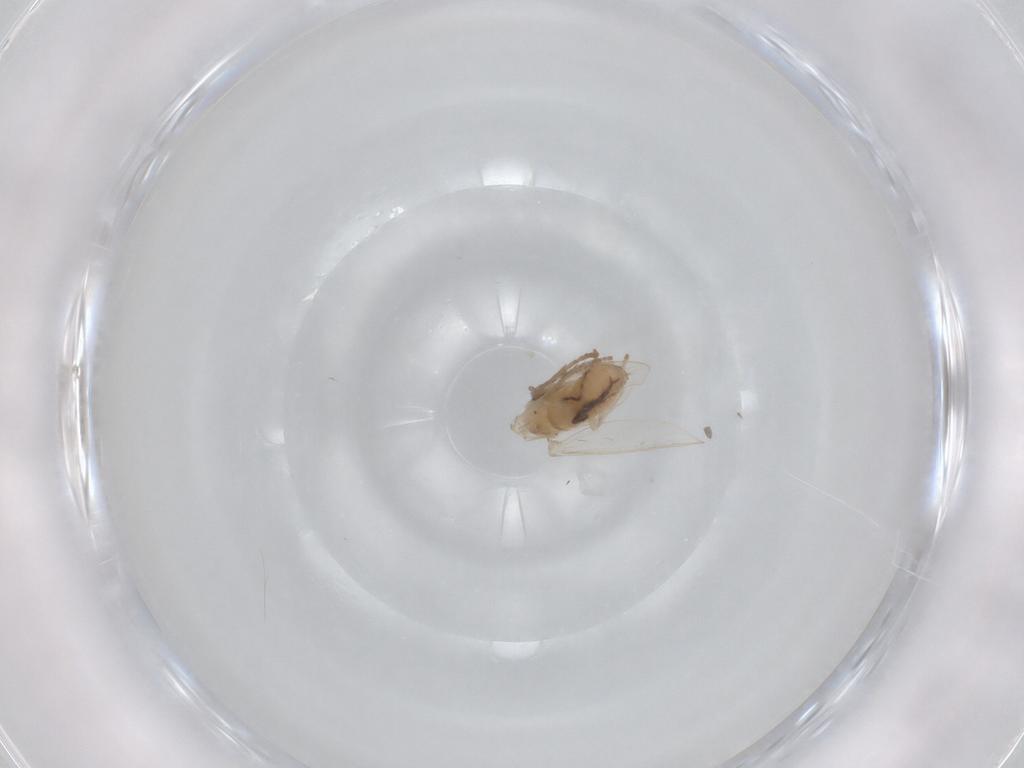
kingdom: Animalia
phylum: Arthropoda
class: Insecta
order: Diptera
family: Psychodidae
